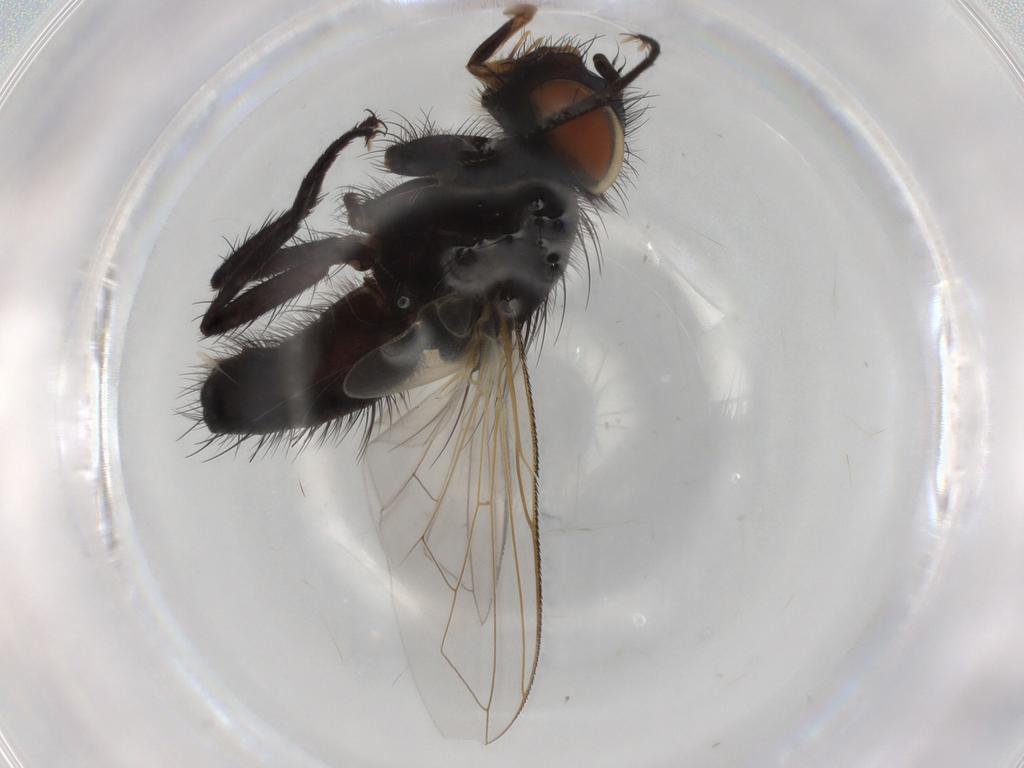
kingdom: Animalia
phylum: Arthropoda
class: Insecta
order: Diptera
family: Tachinidae
